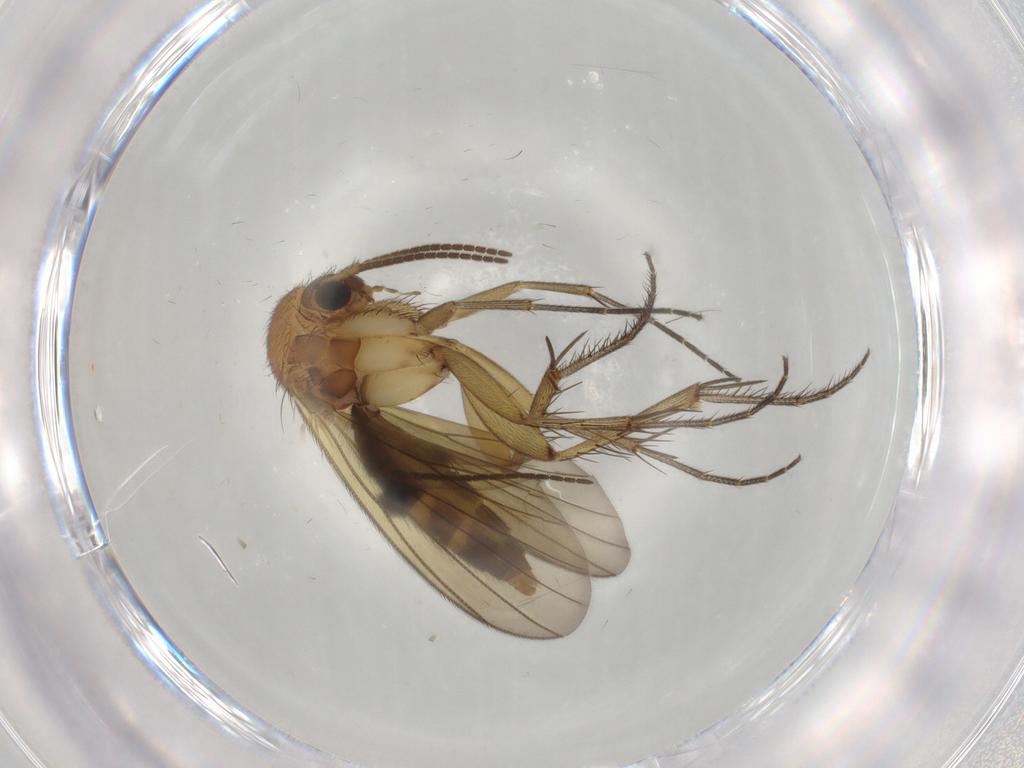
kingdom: Animalia
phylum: Arthropoda
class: Insecta
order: Diptera
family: Mycetophilidae
